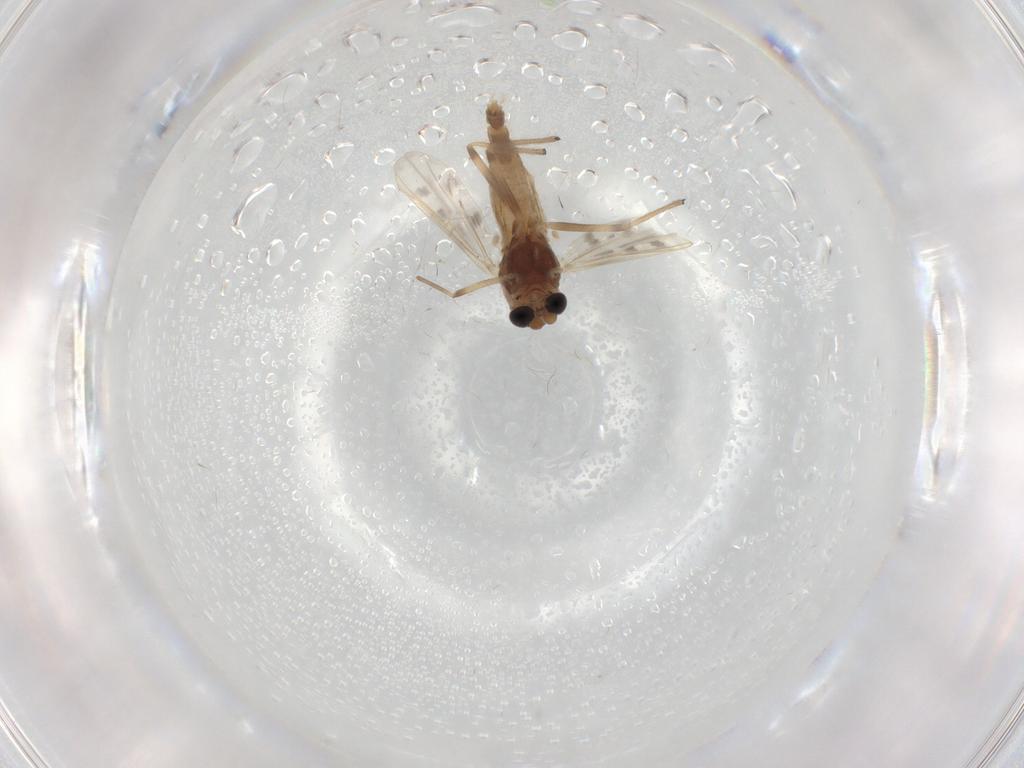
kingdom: Animalia
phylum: Arthropoda
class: Insecta
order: Diptera
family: Chironomidae
